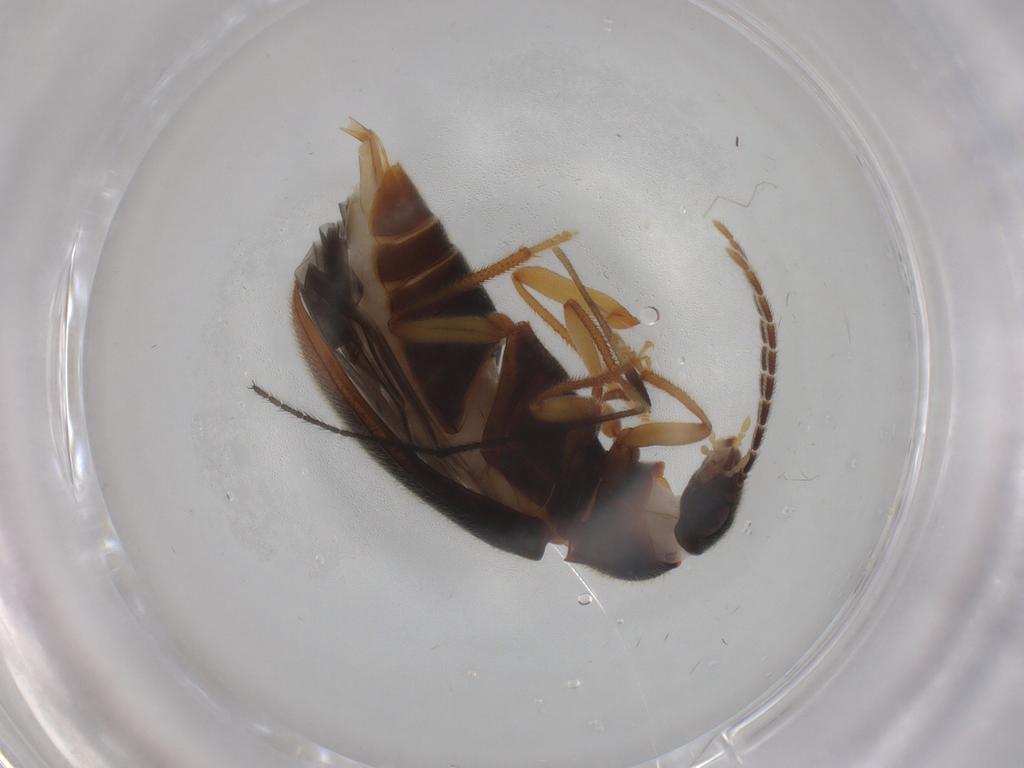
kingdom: Animalia
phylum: Arthropoda
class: Insecta
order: Coleoptera
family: Ptilodactylidae
